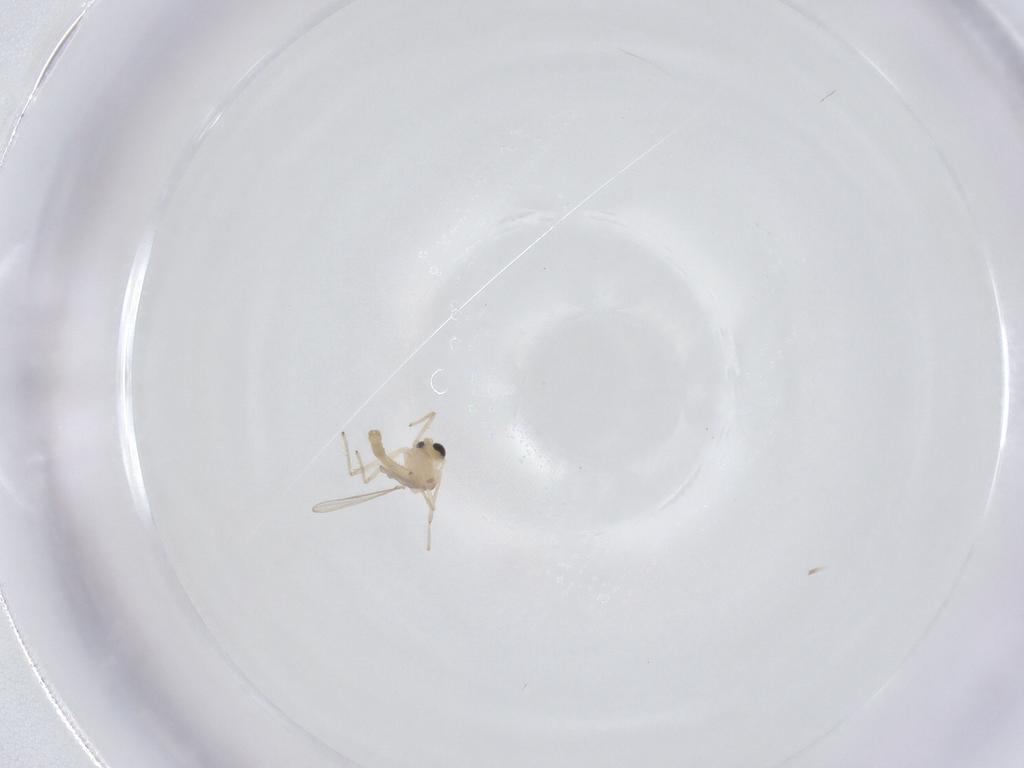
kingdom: Animalia
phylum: Arthropoda
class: Insecta
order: Diptera
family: Chironomidae
